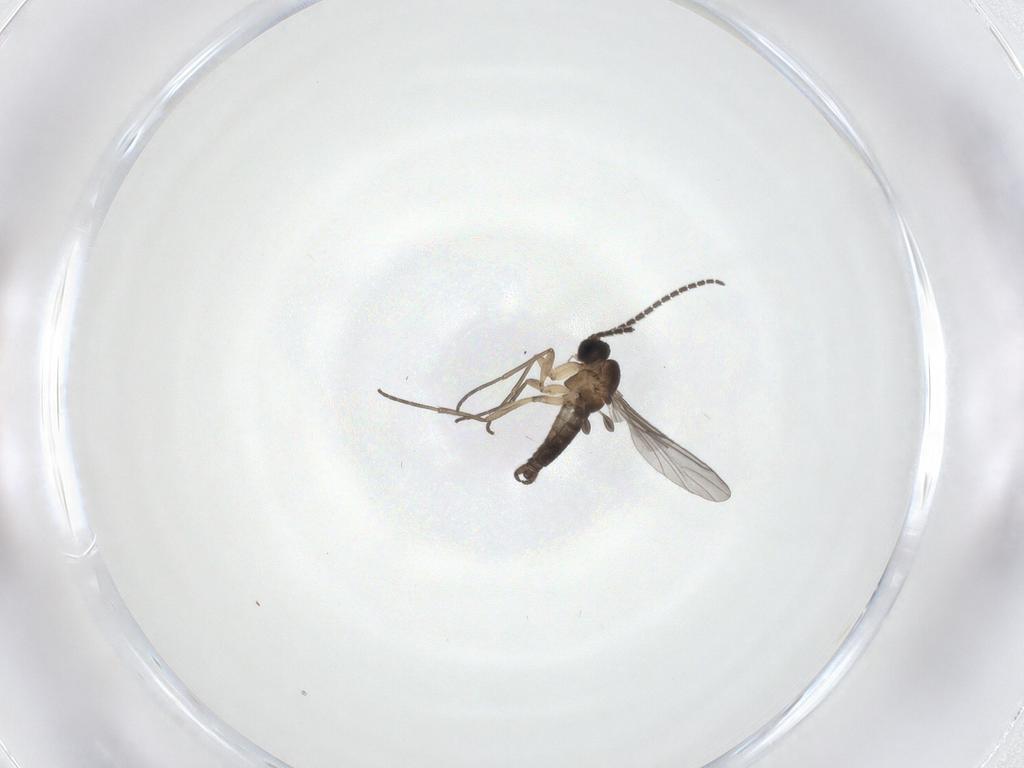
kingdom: Animalia
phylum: Arthropoda
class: Insecta
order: Diptera
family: Sciaridae
